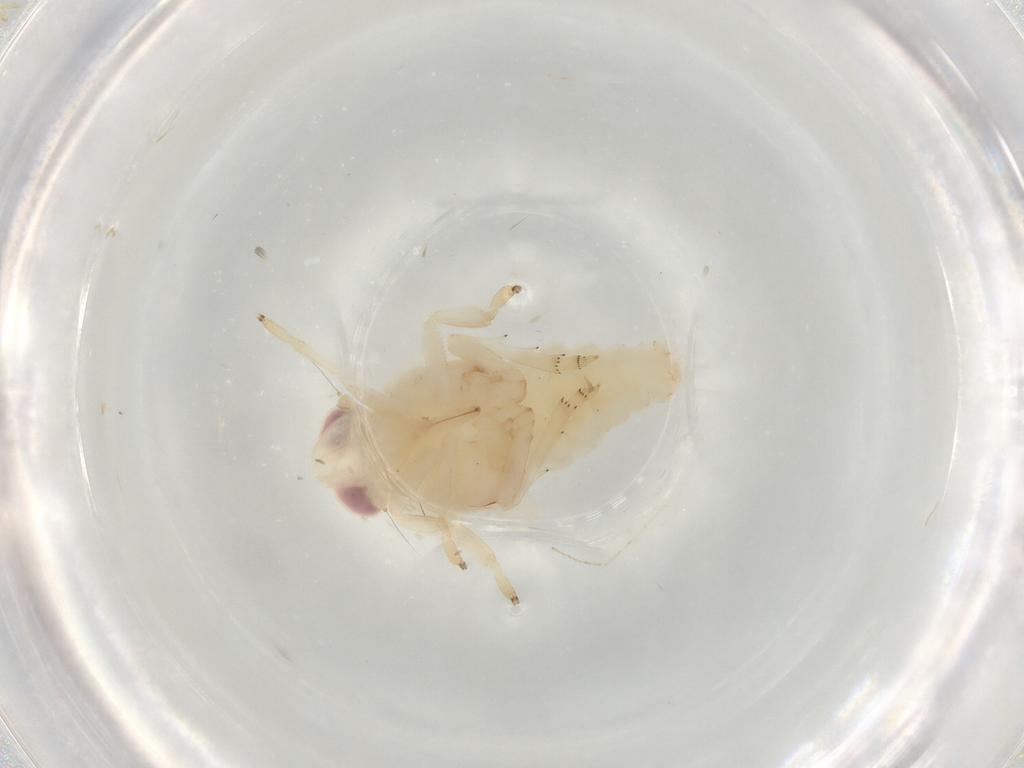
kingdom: Animalia
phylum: Arthropoda
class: Insecta
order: Hemiptera
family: Nogodinidae
